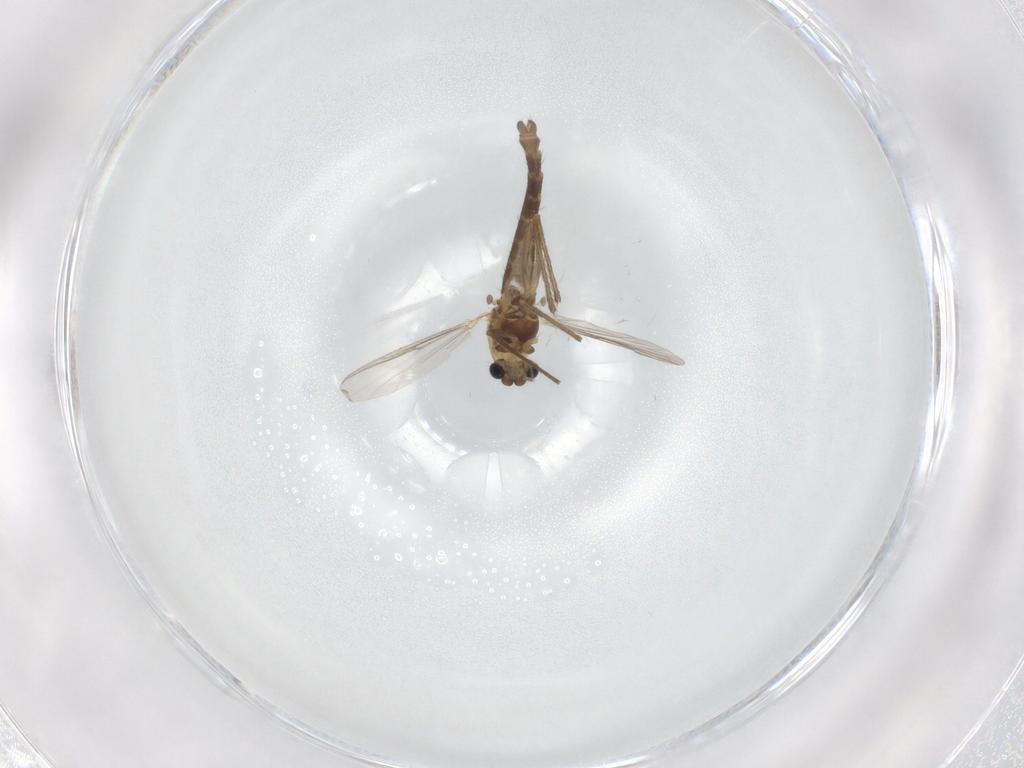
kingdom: Animalia
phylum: Arthropoda
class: Insecta
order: Diptera
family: Chironomidae
